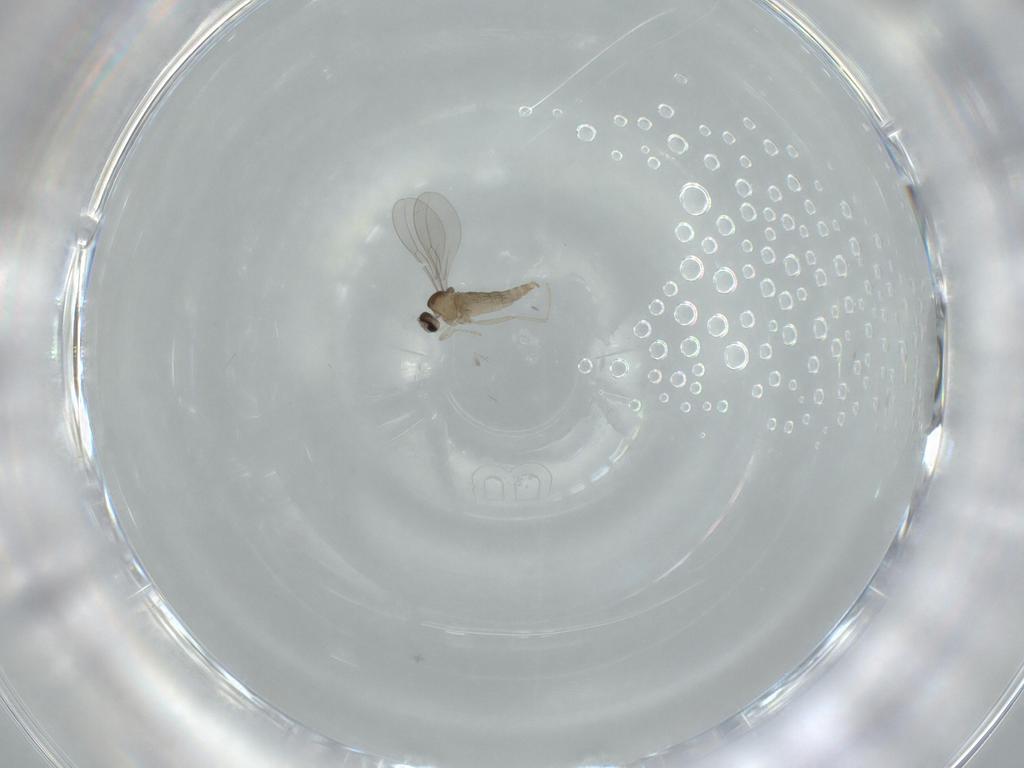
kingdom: Animalia
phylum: Arthropoda
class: Insecta
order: Diptera
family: Cecidomyiidae
